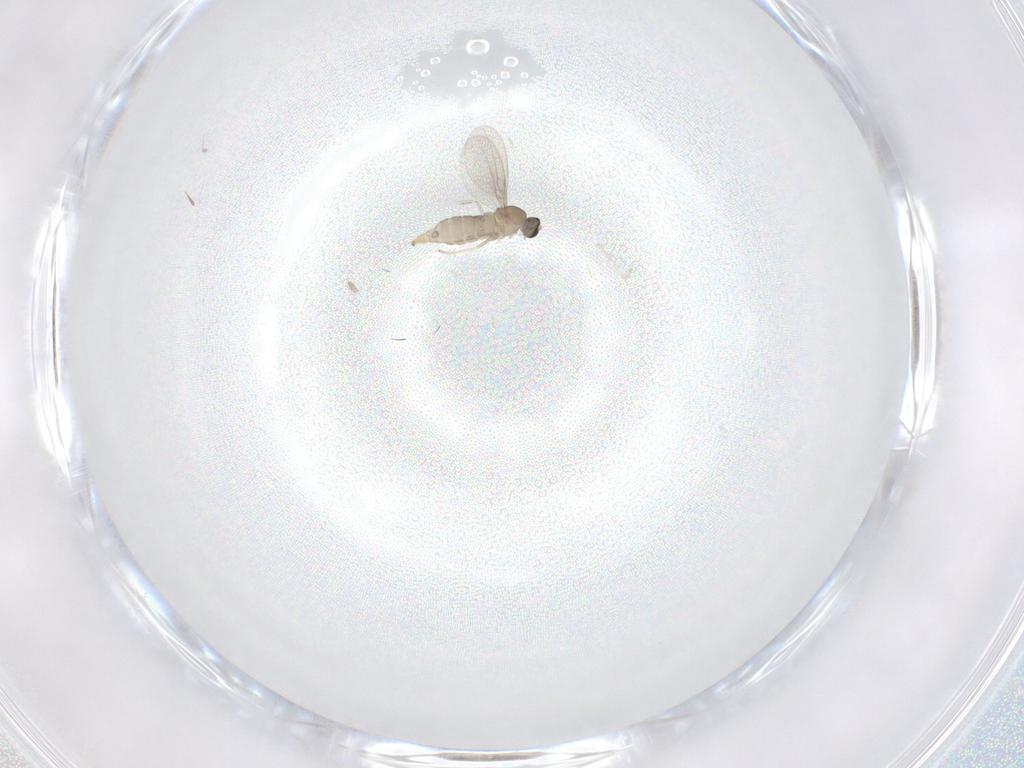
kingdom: Animalia
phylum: Arthropoda
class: Insecta
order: Diptera
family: Cecidomyiidae
